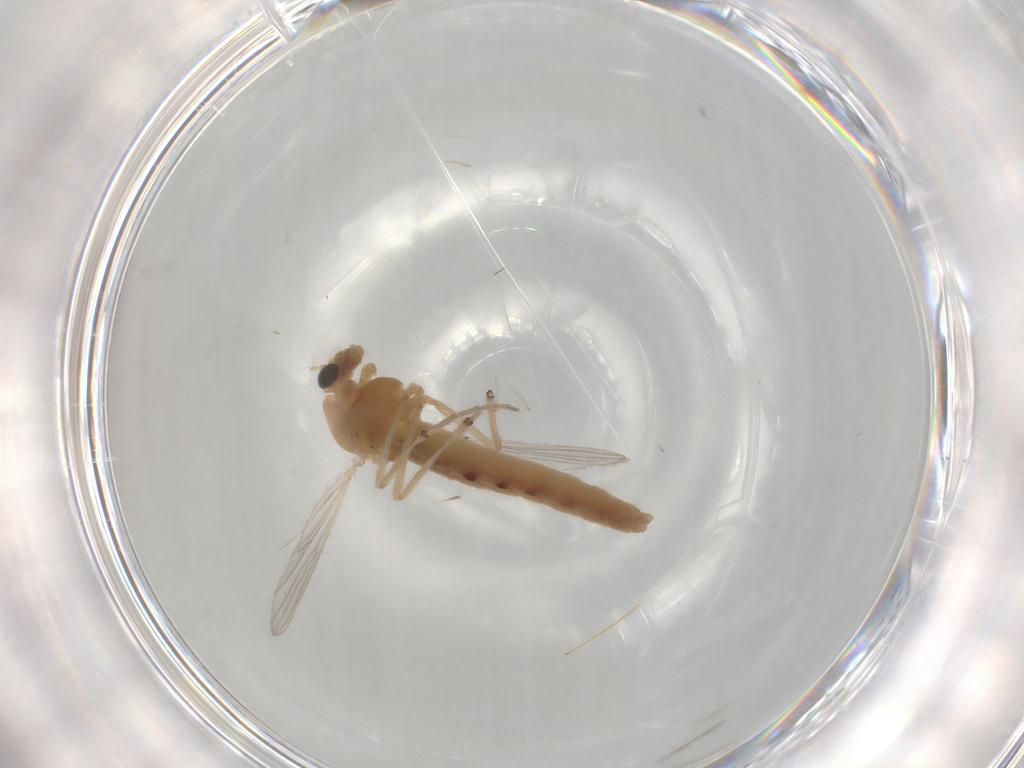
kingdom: Animalia
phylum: Arthropoda
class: Insecta
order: Diptera
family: Chironomidae
